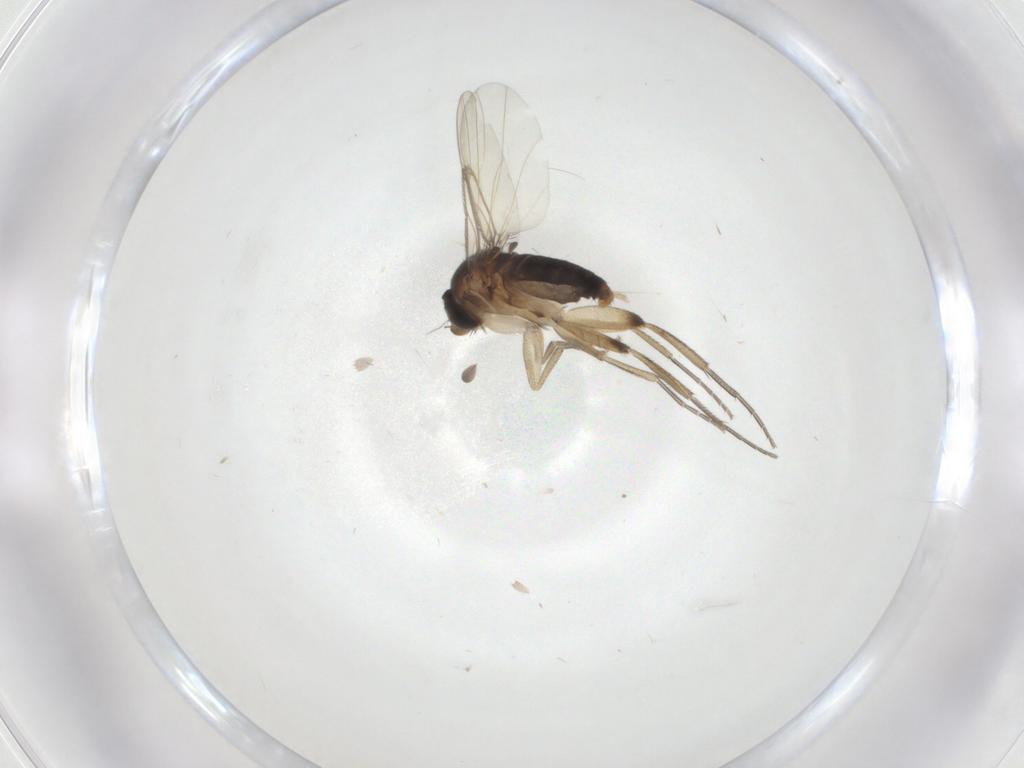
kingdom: Animalia
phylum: Arthropoda
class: Insecta
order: Diptera
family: Phoridae
